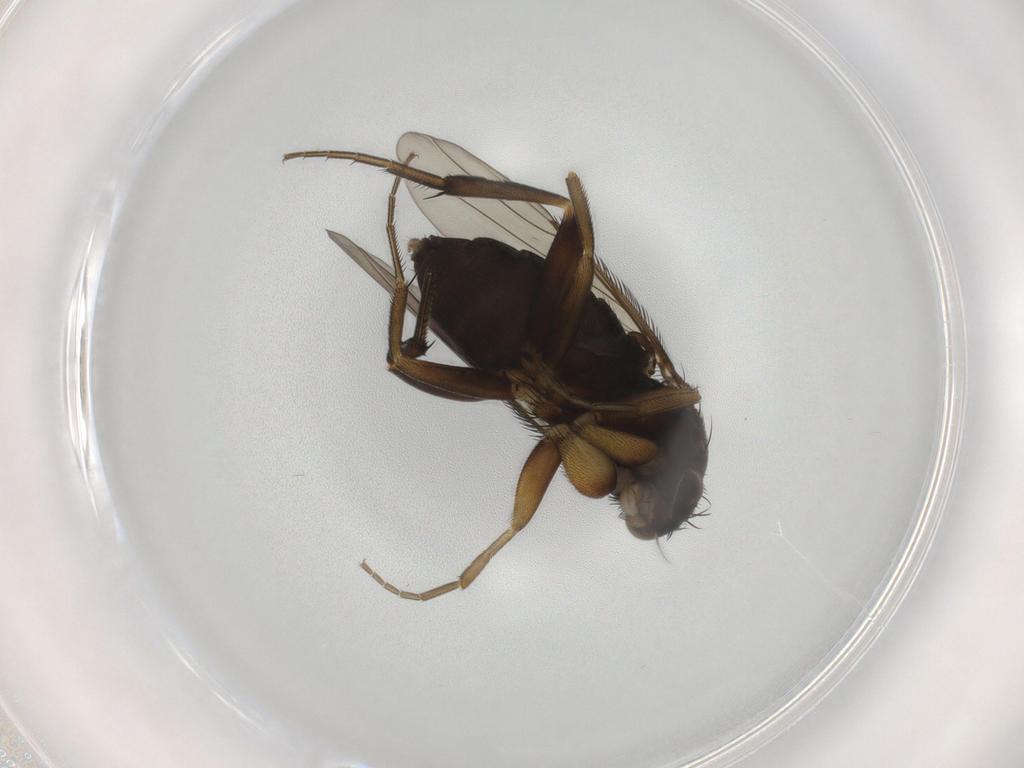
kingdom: Animalia
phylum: Arthropoda
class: Insecta
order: Diptera
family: Phoridae
